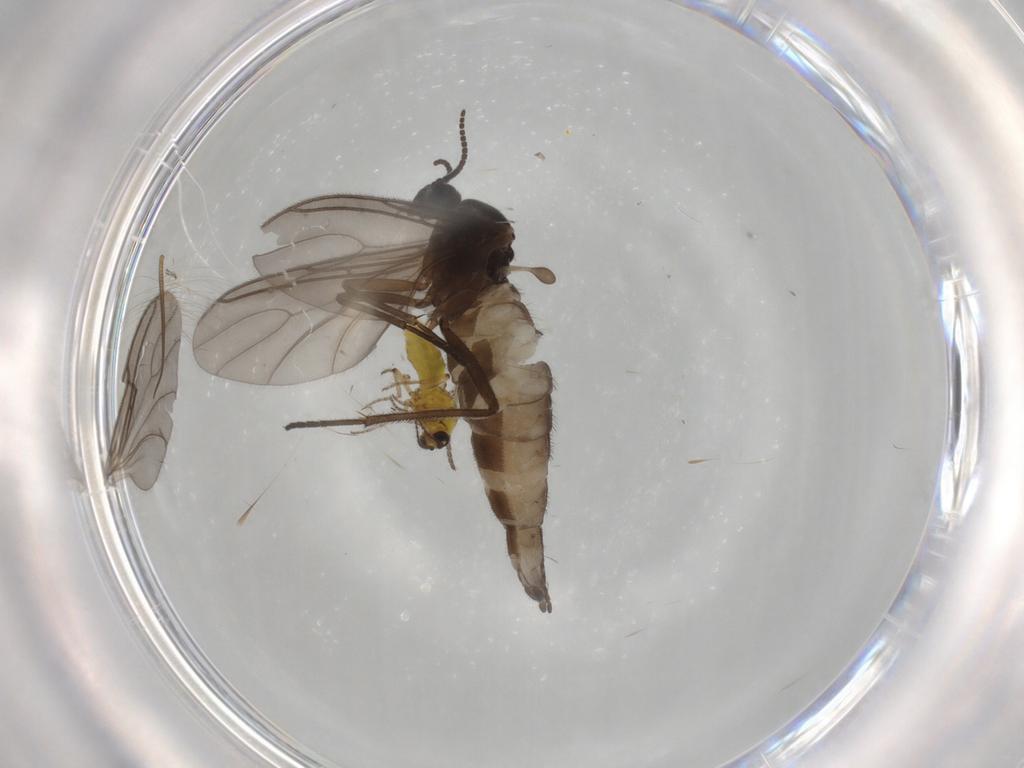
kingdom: Animalia
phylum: Arthropoda
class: Insecta
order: Diptera
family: Sciaridae
